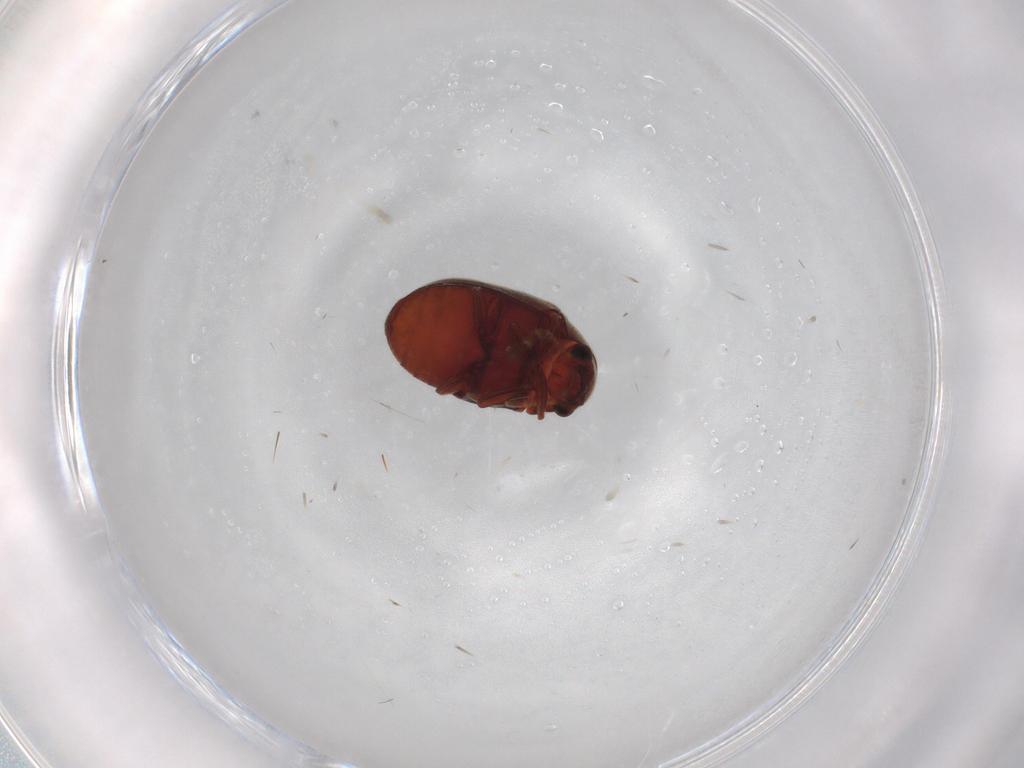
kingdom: Animalia
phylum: Arthropoda
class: Insecta
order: Coleoptera
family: Ptinidae
